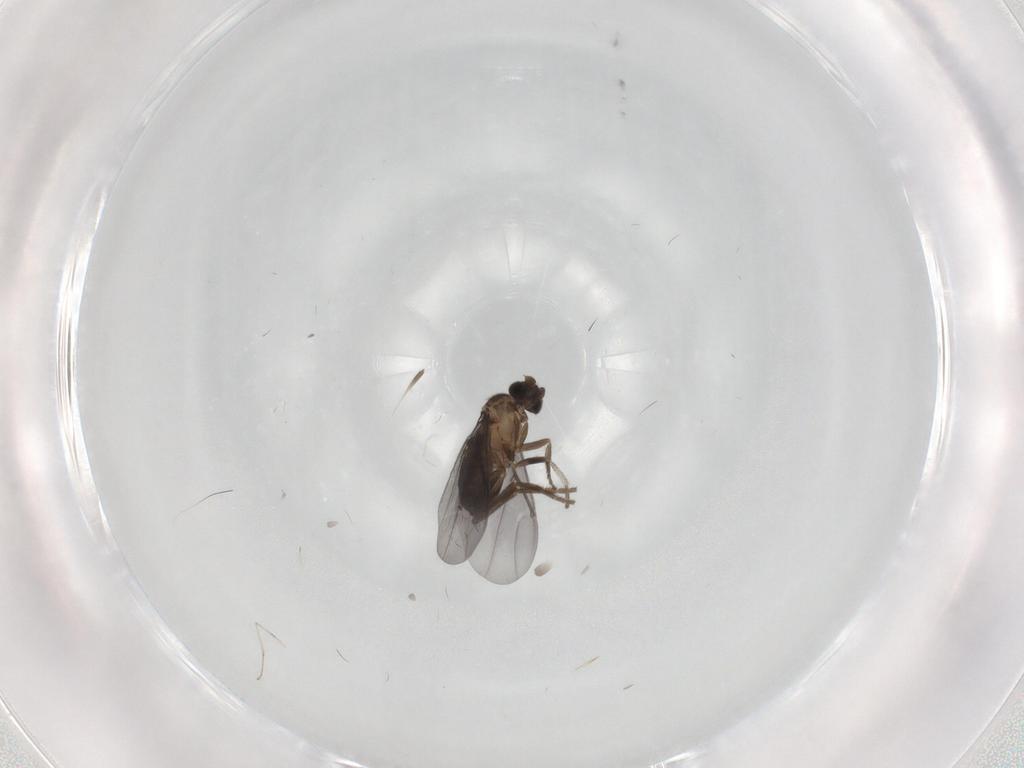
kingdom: Animalia
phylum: Arthropoda
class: Insecta
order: Diptera
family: Phoridae
